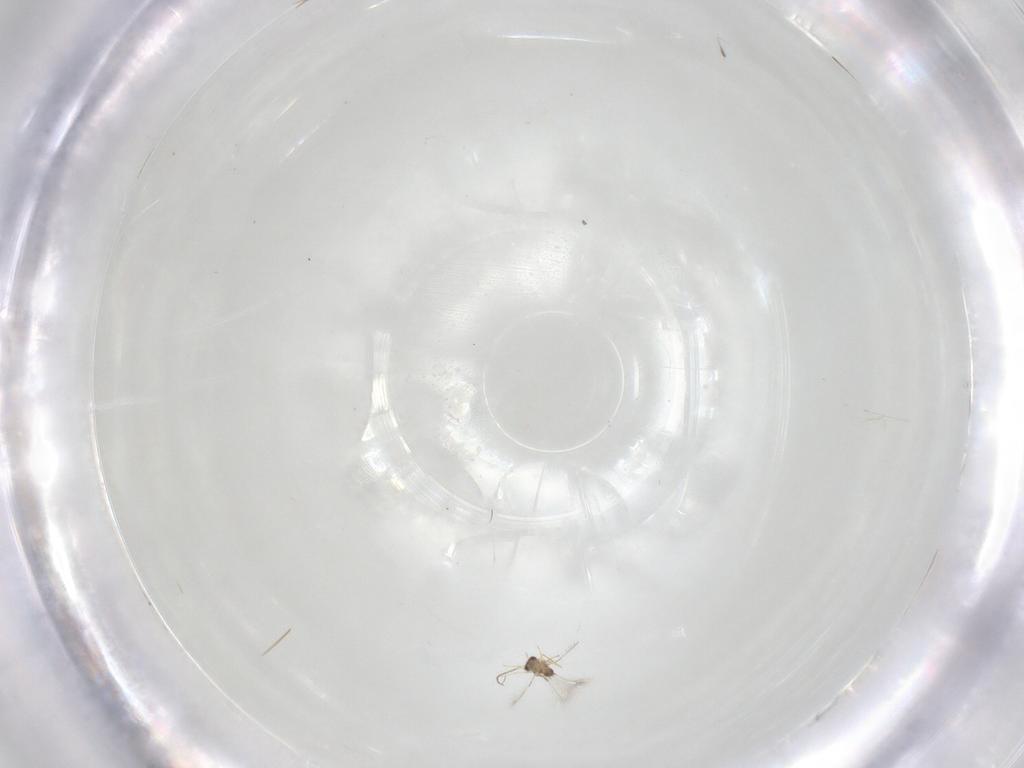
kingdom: Animalia
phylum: Arthropoda
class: Insecta
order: Hymenoptera
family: Mymaridae
